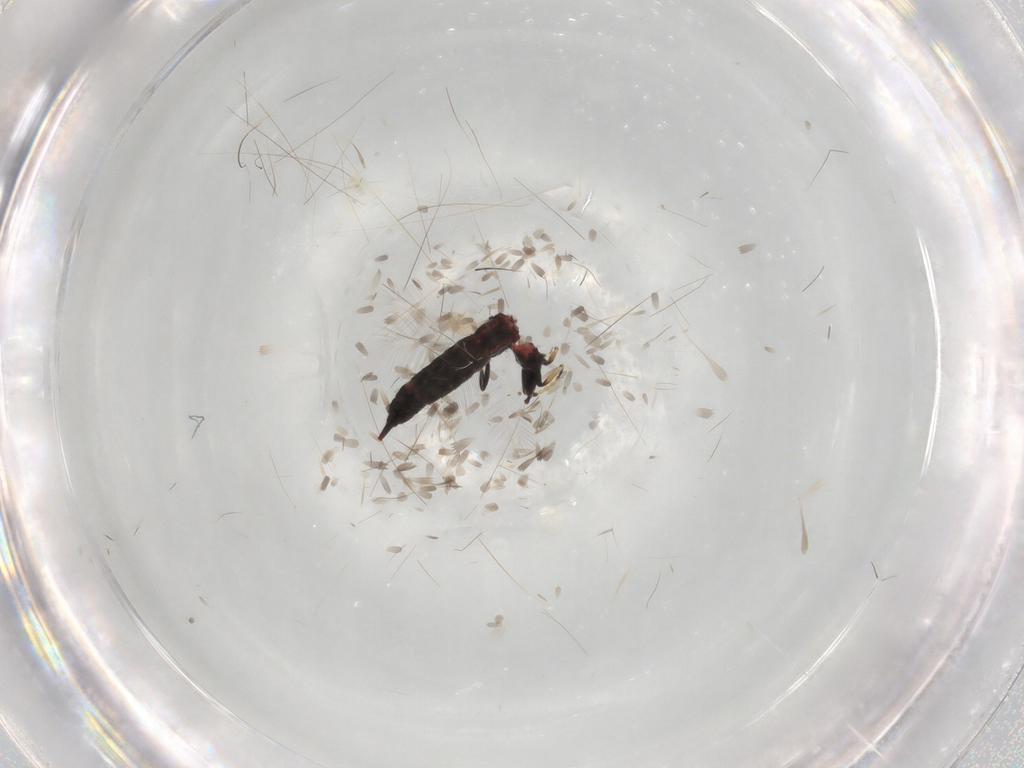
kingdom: Animalia
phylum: Arthropoda
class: Insecta
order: Thysanoptera
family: Phlaeothripidae
